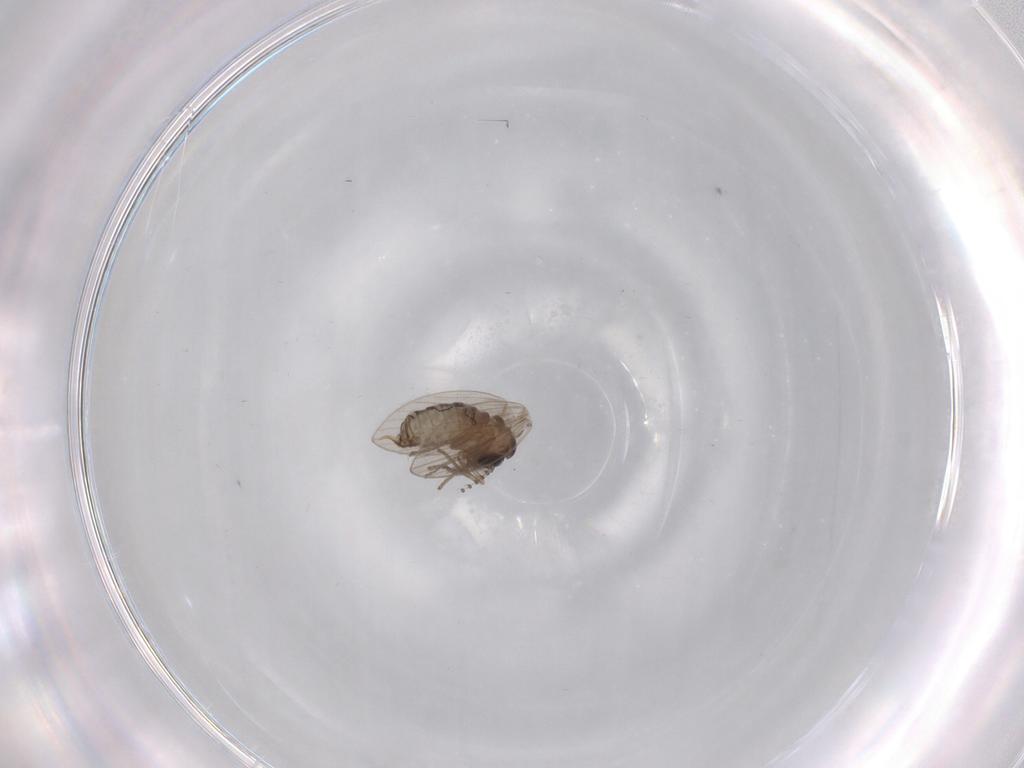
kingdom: Animalia
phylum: Arthropoda
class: Insecta
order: Diptera
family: Psychodidae
